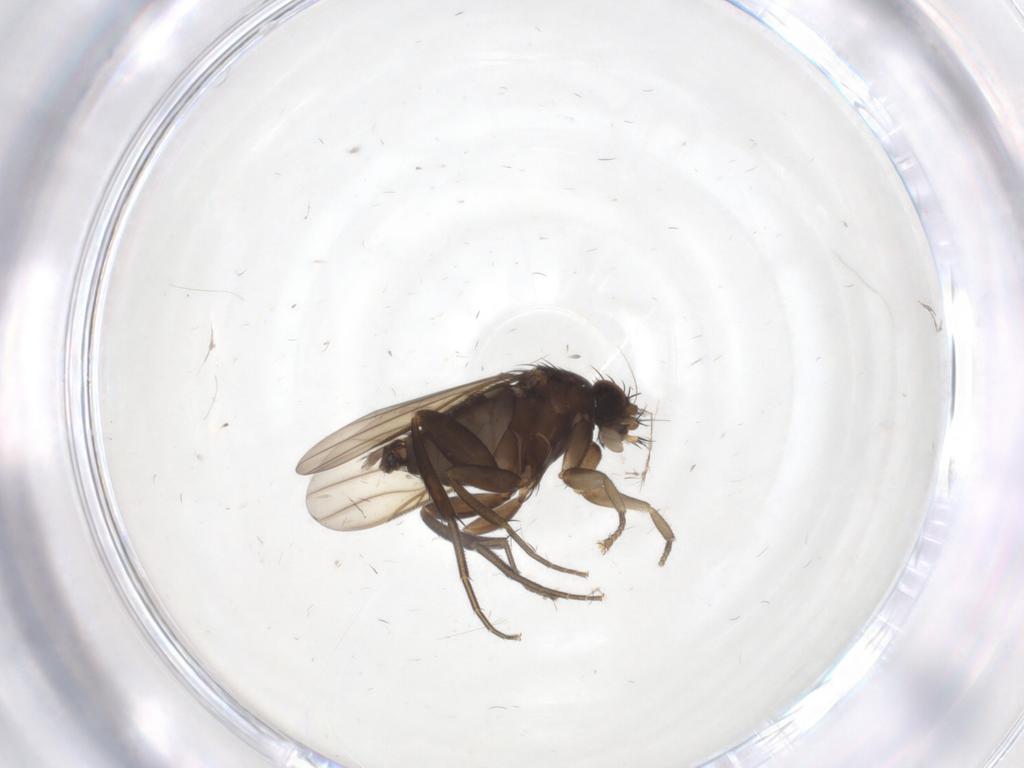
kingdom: Animalia
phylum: Arthropoda
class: Insecta
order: Diptera
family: Phoridae
